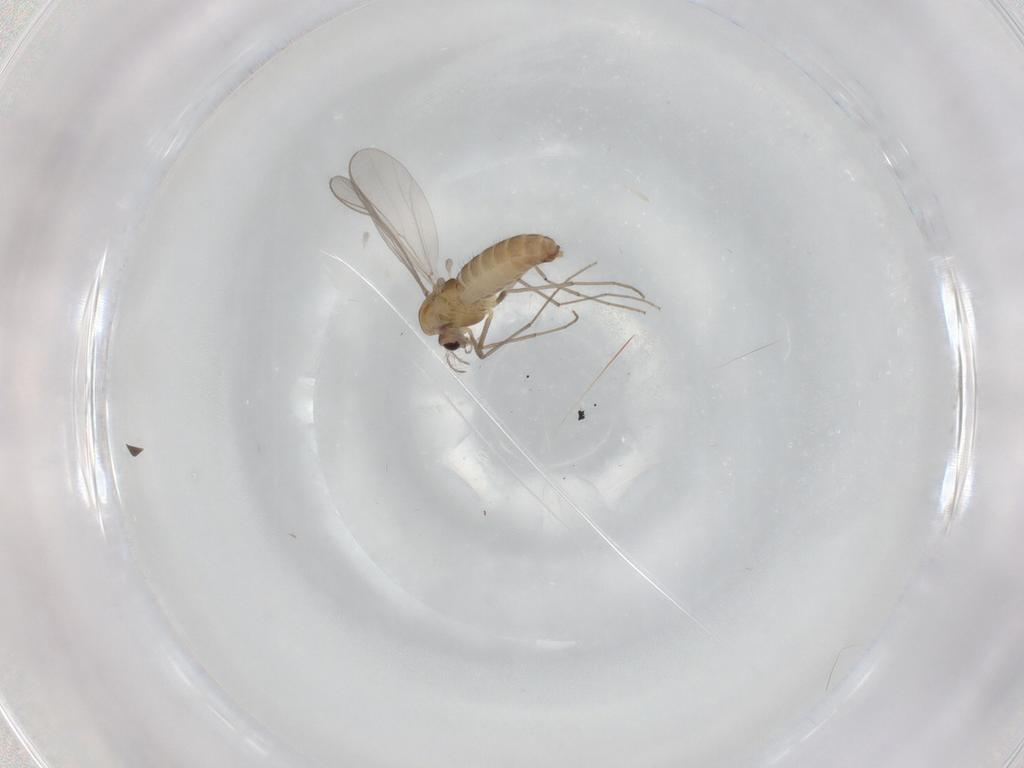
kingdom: Animalia
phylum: Arthropoda
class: Insecta
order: Diptera
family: Chironomidae
